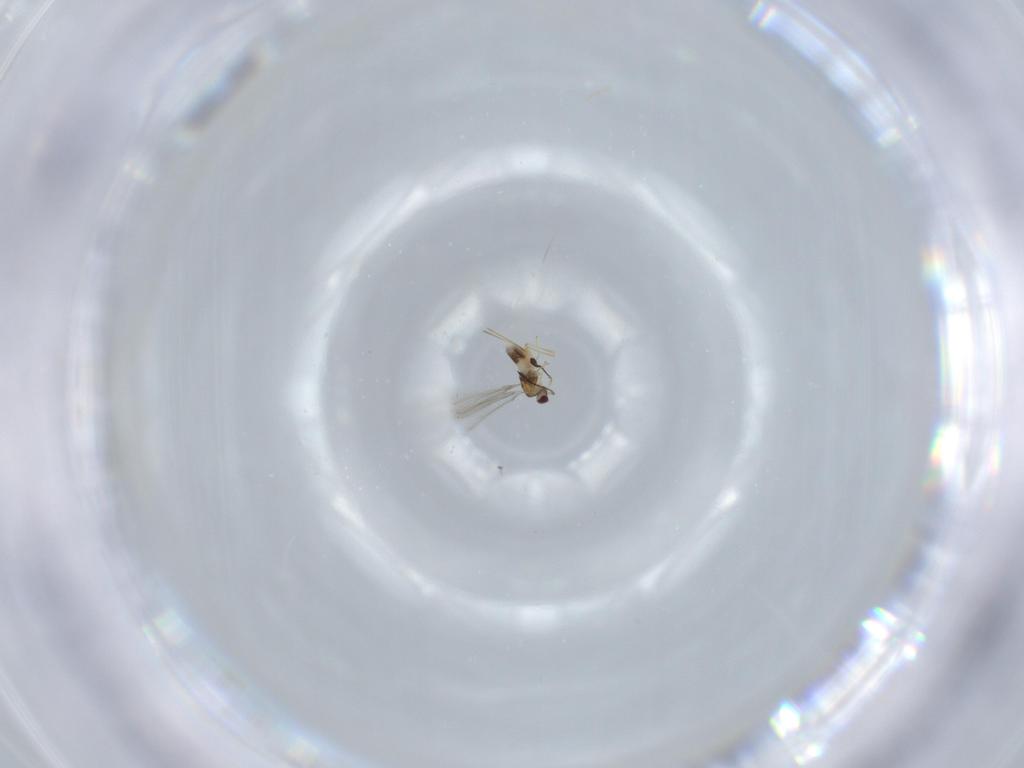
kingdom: Animalia
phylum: Arthropoda
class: Insecta
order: Hymenoptera
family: Mymaridae
